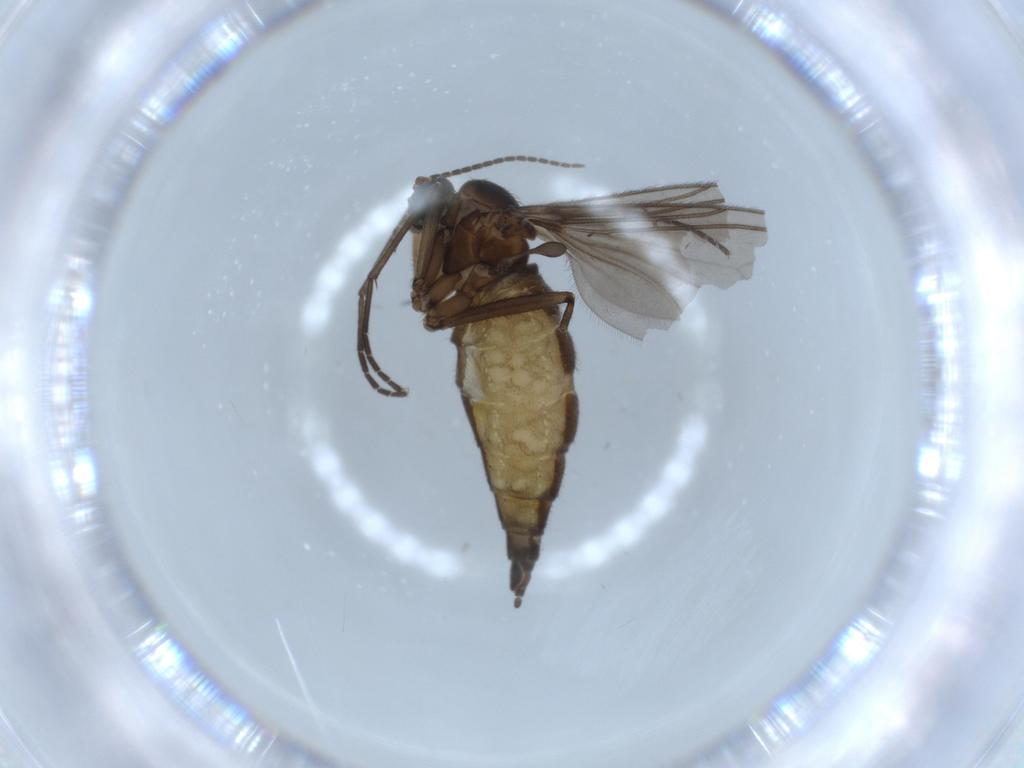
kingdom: Animalia
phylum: Arthropoda
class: Insecta
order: Diptera
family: Sciaridae
